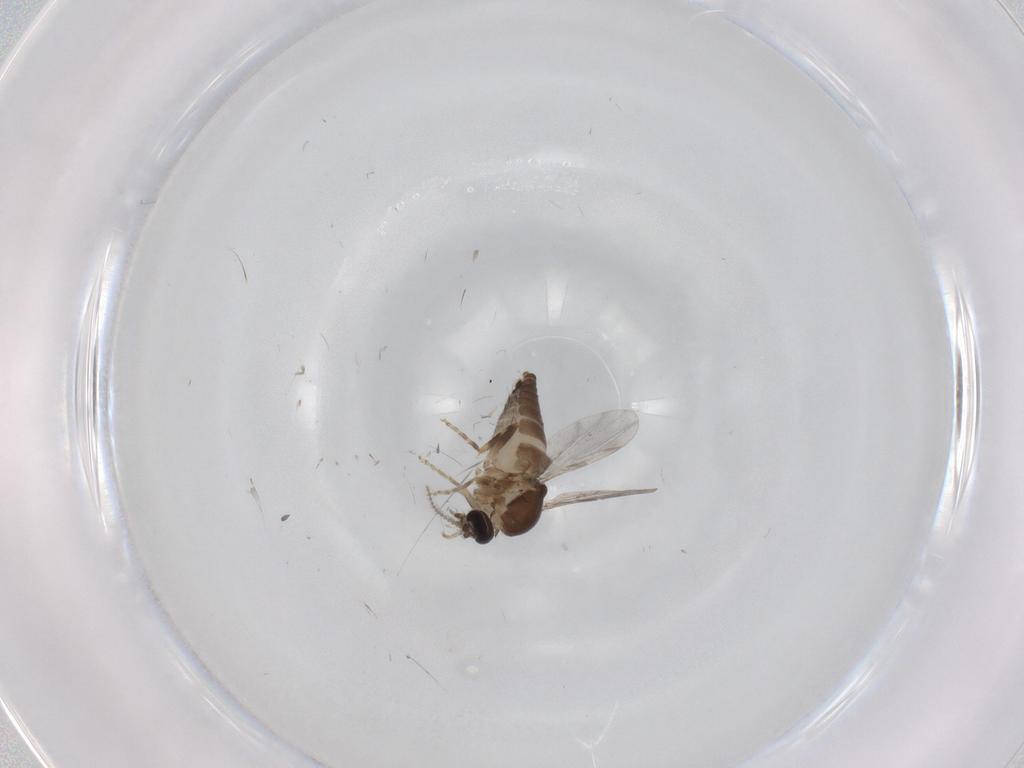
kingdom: Animalia
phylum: Arthropoda
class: Insecta
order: Diptera
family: Ceratopogonidae
